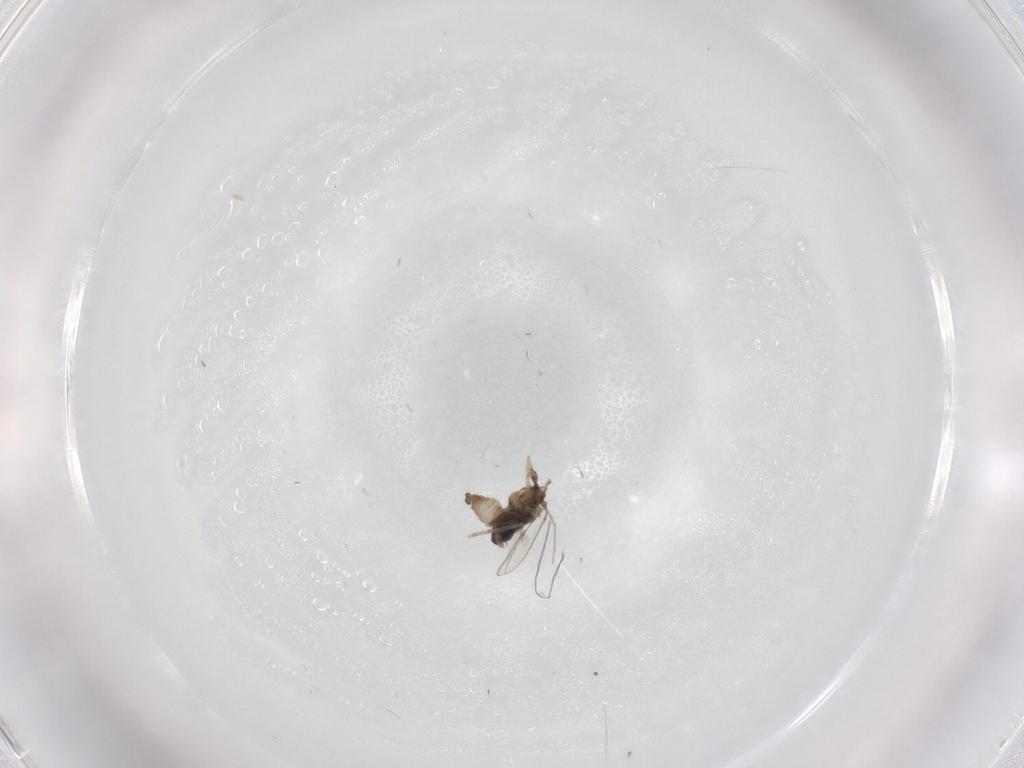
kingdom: Animalia
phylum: Arthropoda
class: Insecta
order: Diptera
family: Cecidomyiidae
